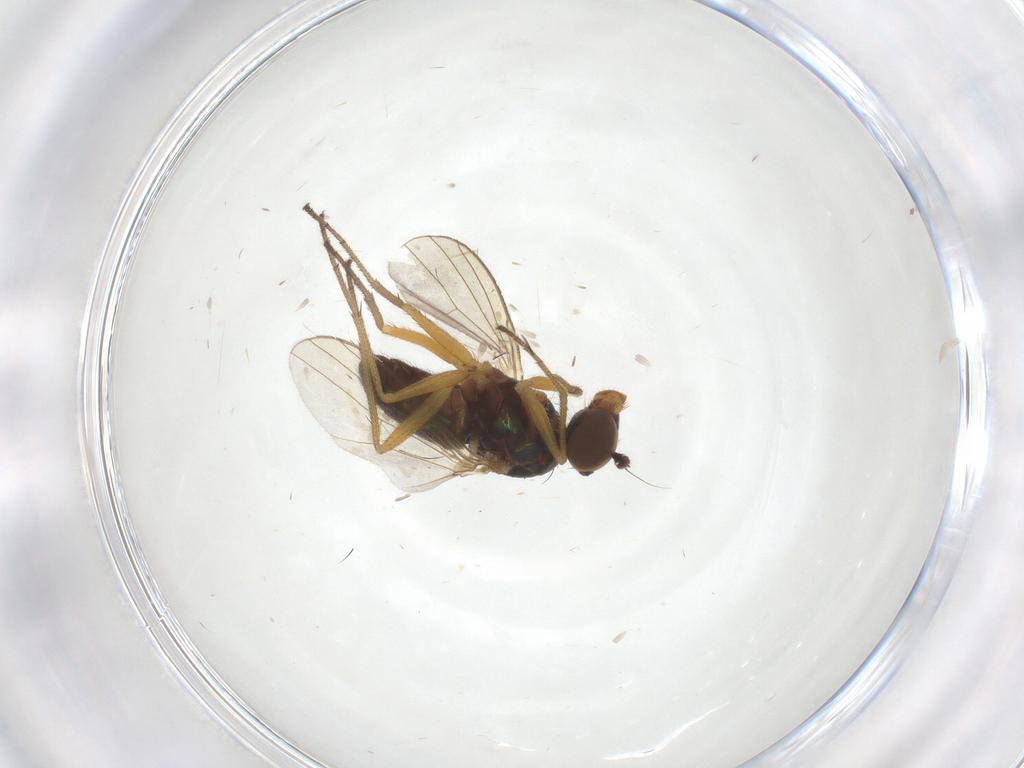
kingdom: Animalia
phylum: Arthropoda
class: Insecta
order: Diptera
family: Dolichopodidae
